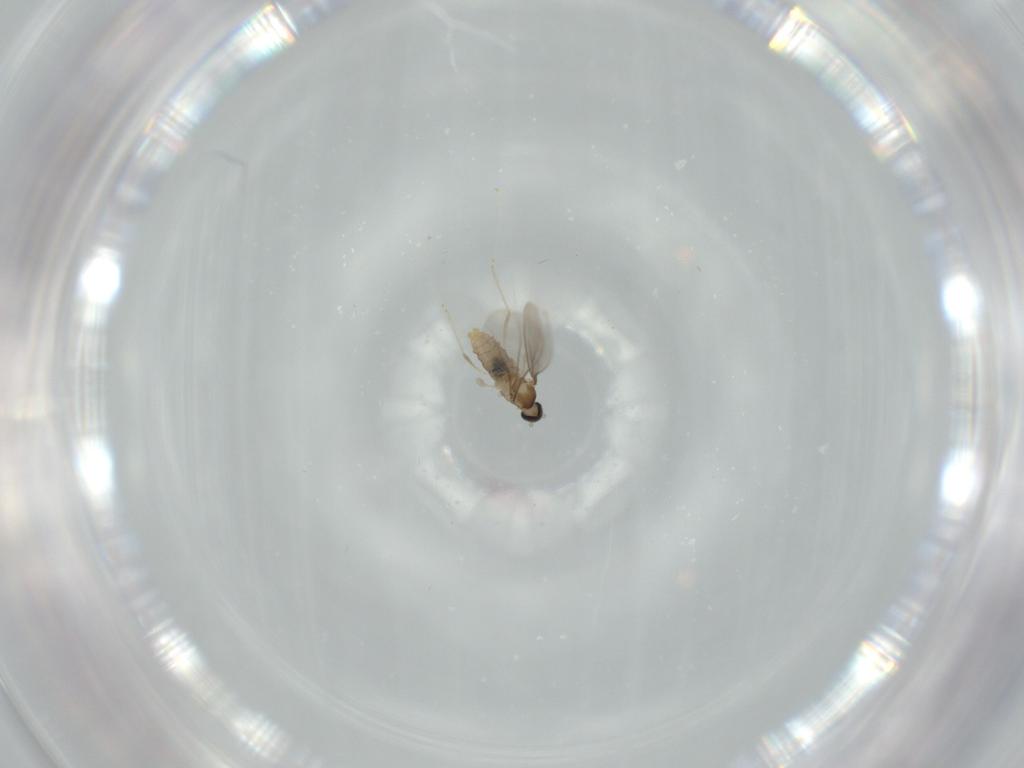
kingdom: Animalia
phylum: Arthropoda
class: Insecta
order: Diptera
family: Cecidomyiidae
